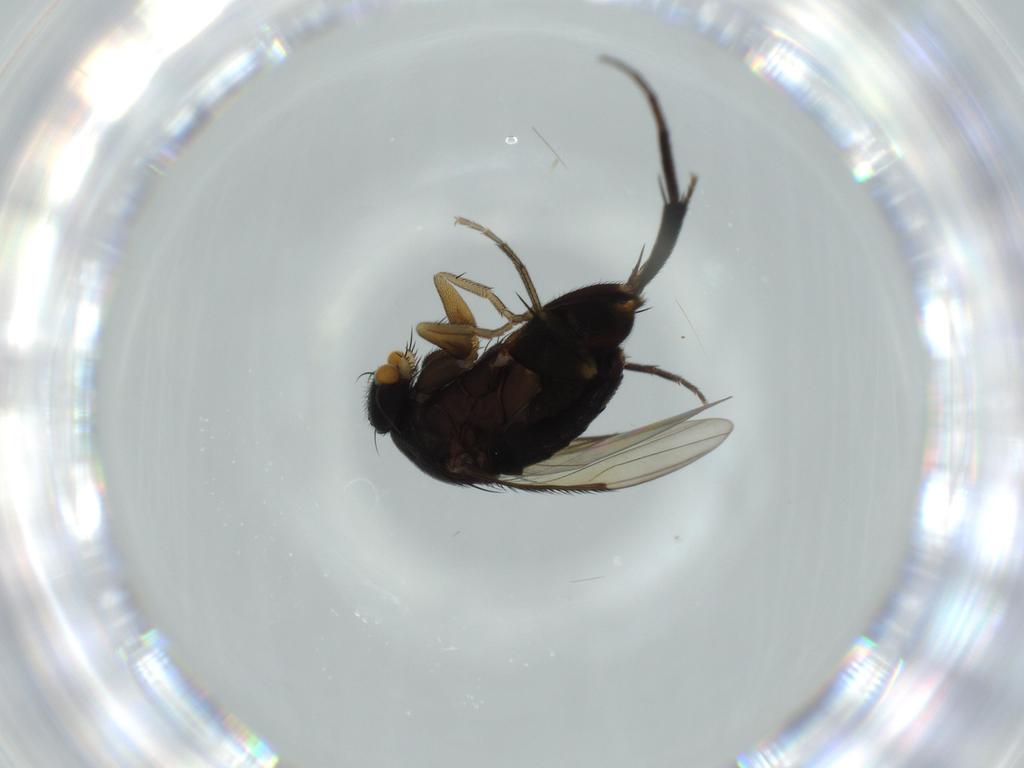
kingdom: Animalia
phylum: Arthropoda
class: Insecta
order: Diptera
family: Phoridae
